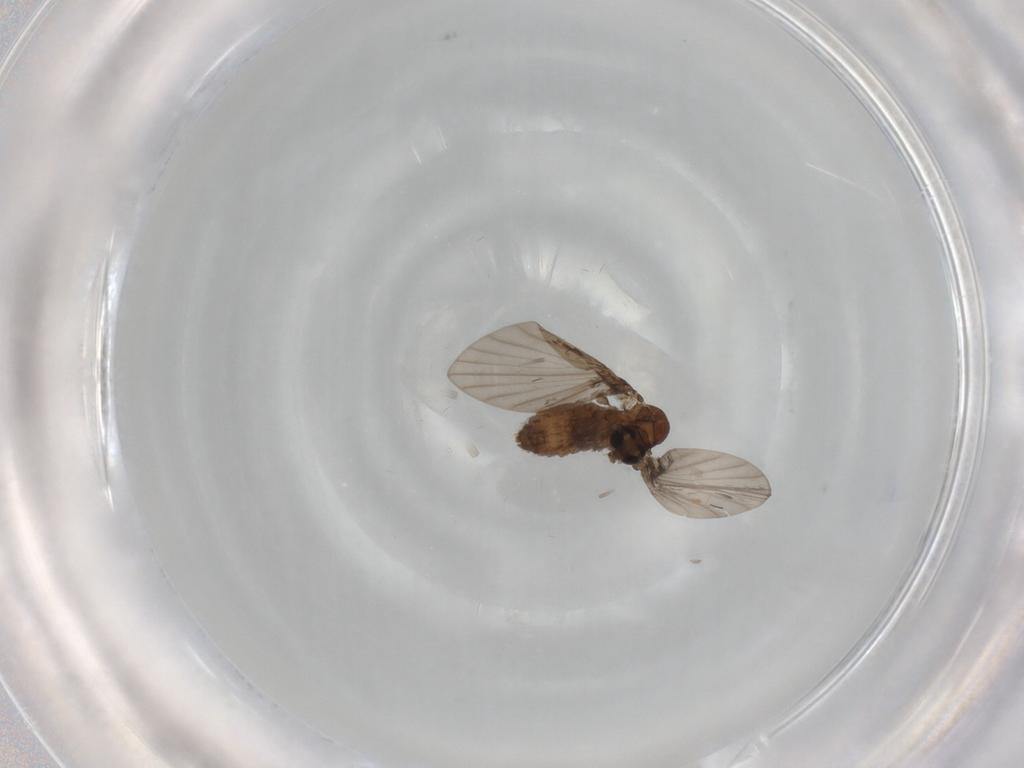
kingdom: Animalia
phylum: Arthropoda
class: Insecta
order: Diptera
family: Psychodidae
